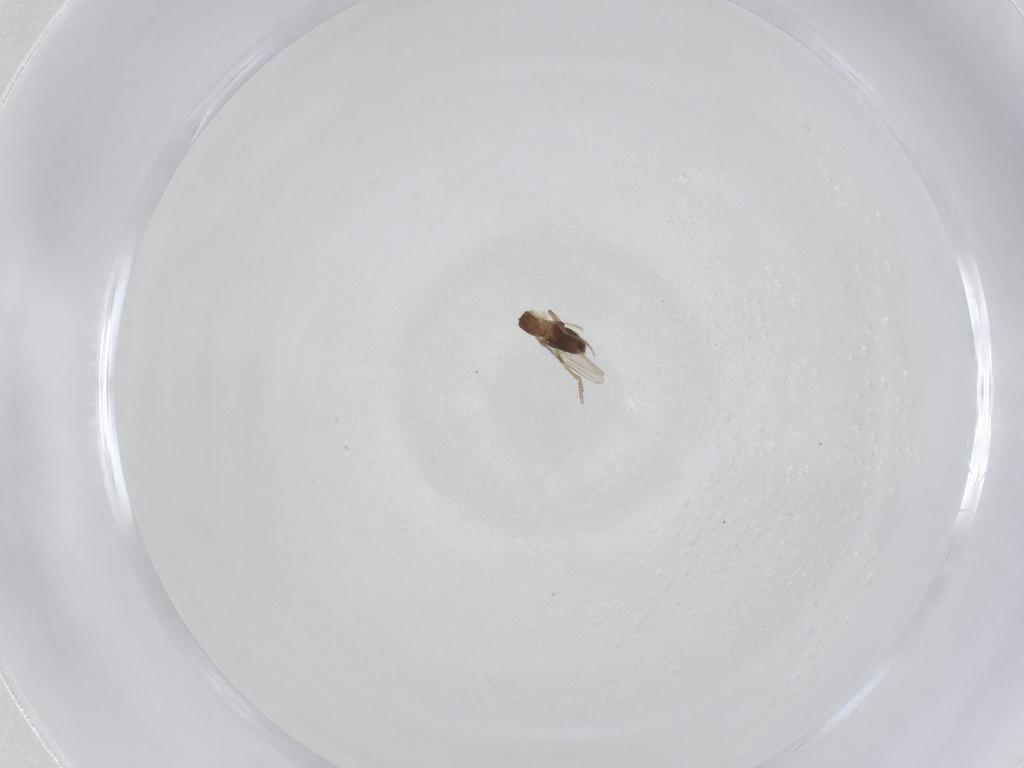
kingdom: Animalia
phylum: Arthropoda
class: Insecta
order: Diptera
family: Phoridae
